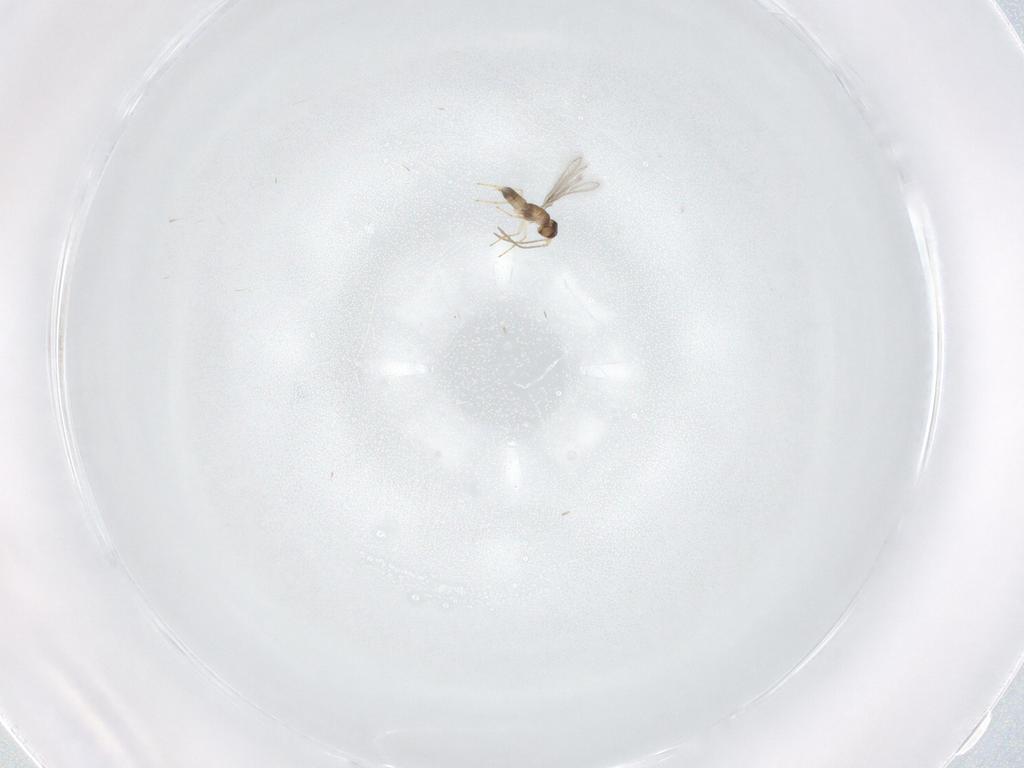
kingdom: Animalia
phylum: Arthropoda
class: Insecta
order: Hymenoptera
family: Mymaridae
